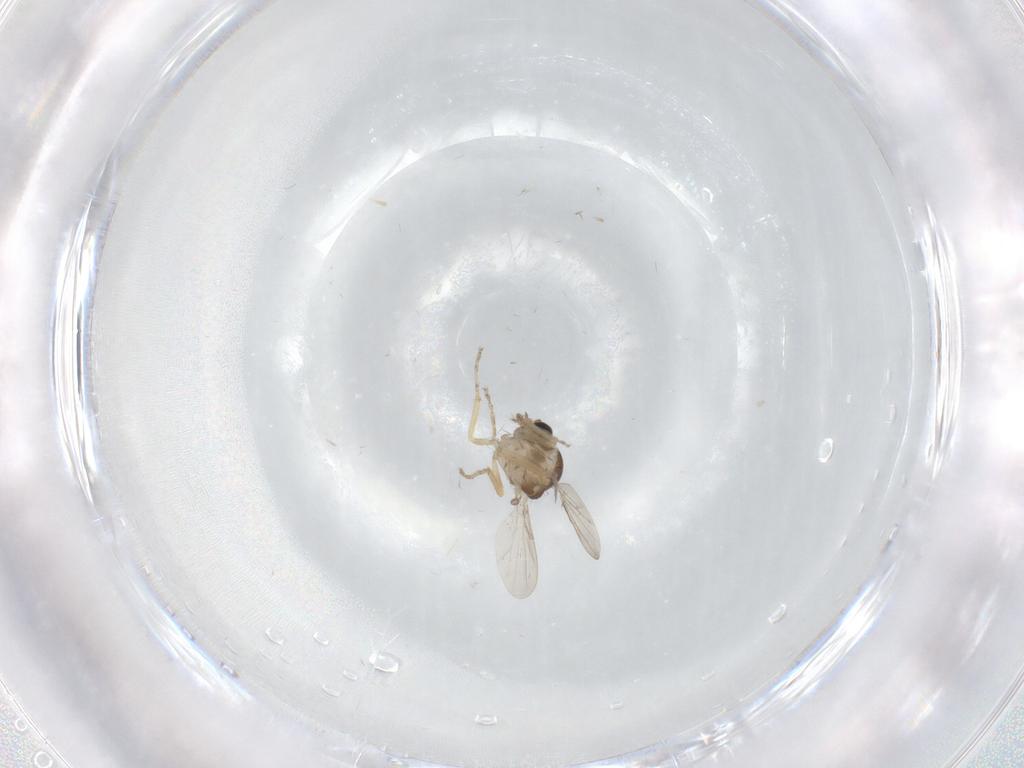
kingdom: Animalia
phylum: Arthropoda
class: Insecta
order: Diptera
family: Ceratopogonidae
